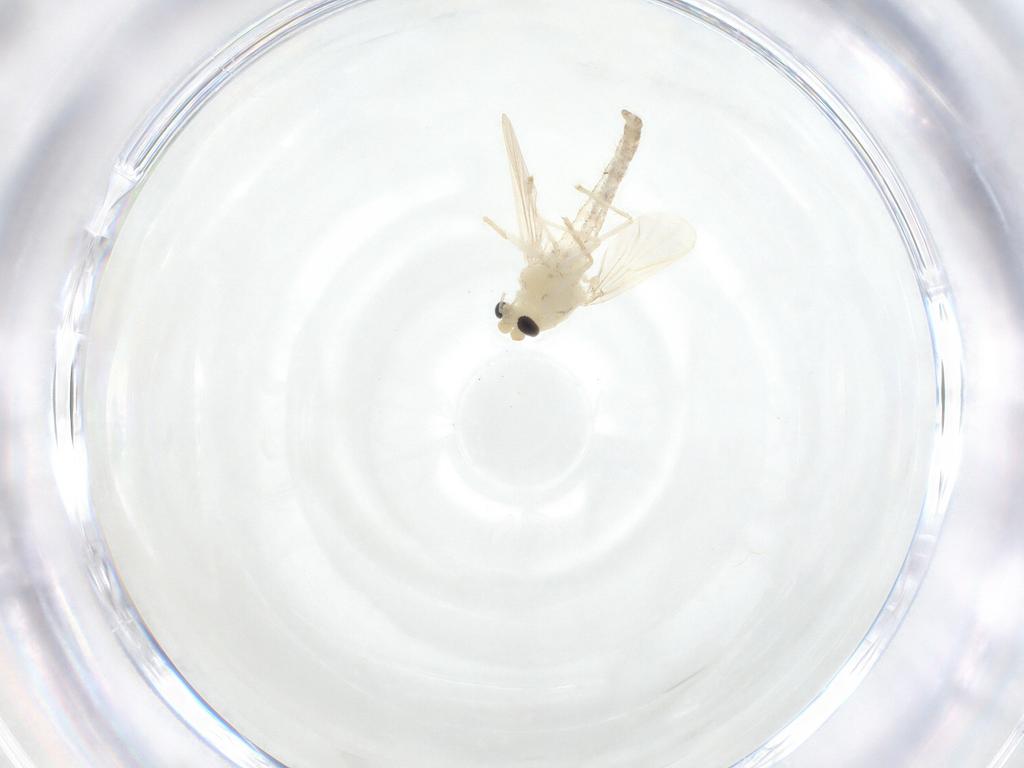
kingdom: Animalia
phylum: Arthropoda
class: Insecta
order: Diptera
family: Chironomidae
